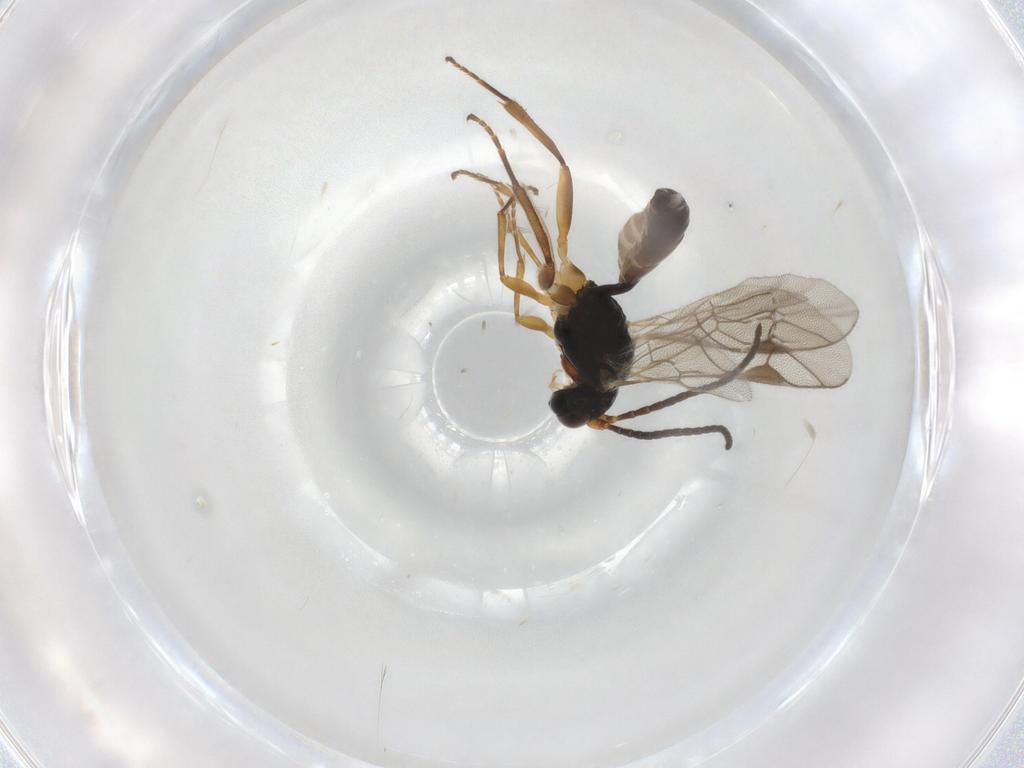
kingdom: Animalia
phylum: Arthropoda
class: Insecta
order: Hymenoptera
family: Ichneumonidae
